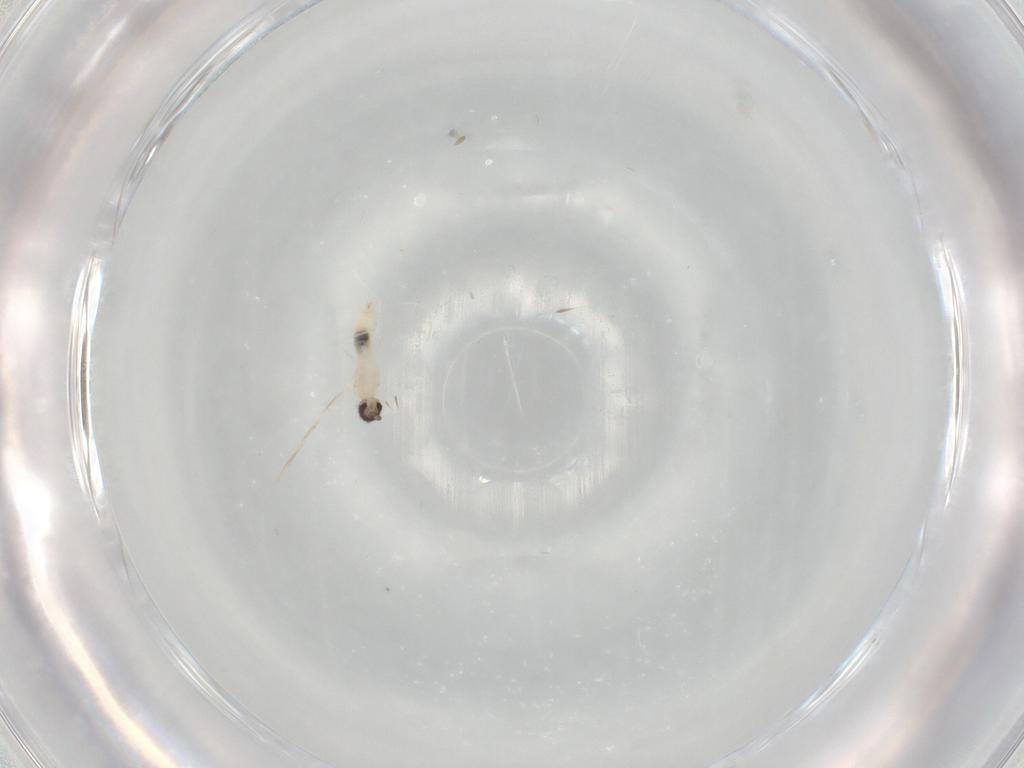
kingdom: Animalia
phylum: Arthropoda
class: Insecta
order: Diptera
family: Cecidomyiidae
